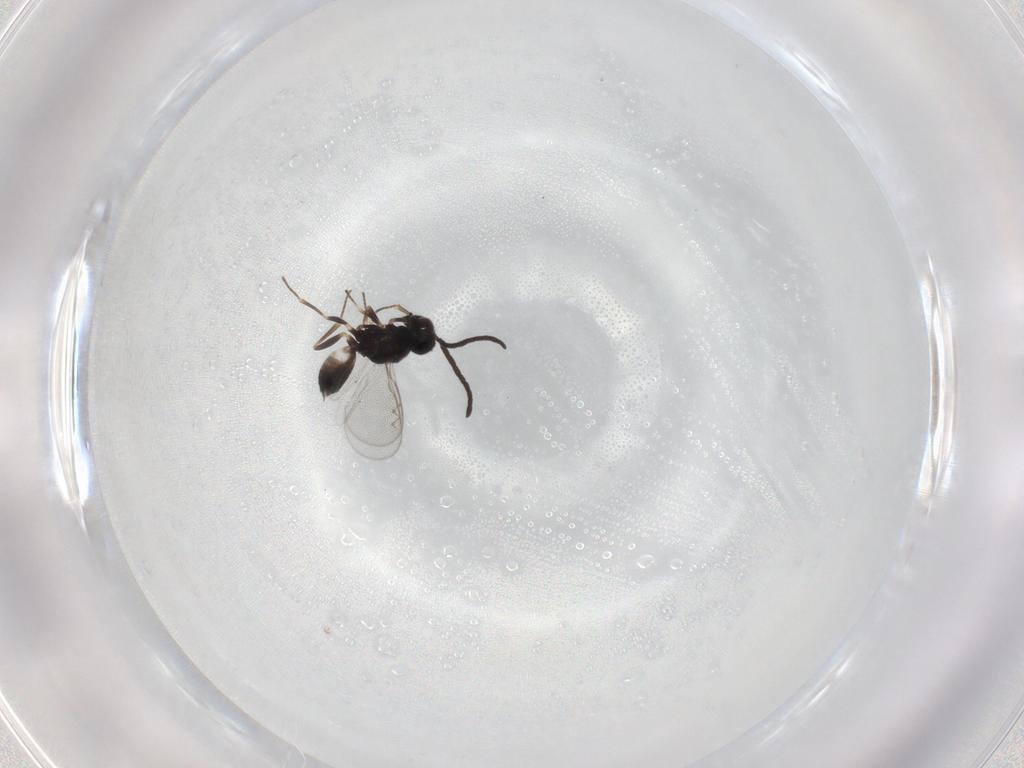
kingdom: Animalia
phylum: Arthropoda
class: Insecta
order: Hymenoptera
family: Eupelmidae
